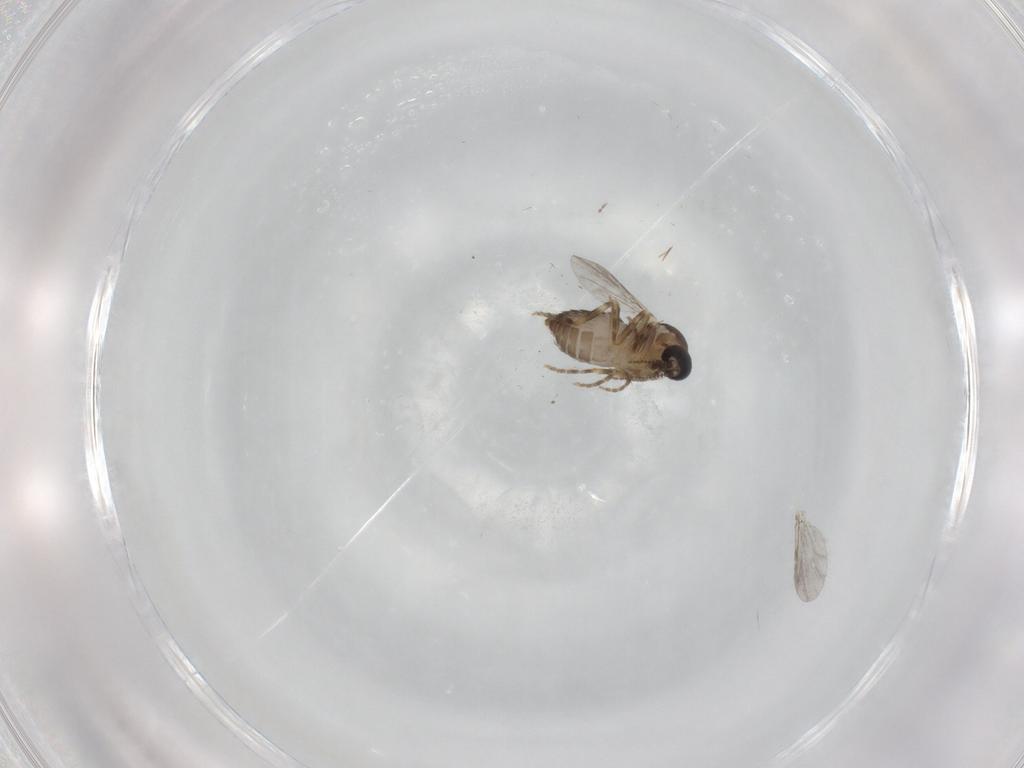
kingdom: Animalia
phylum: Arthropoda
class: Insecta
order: Diptera
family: Ceratopogonidae
